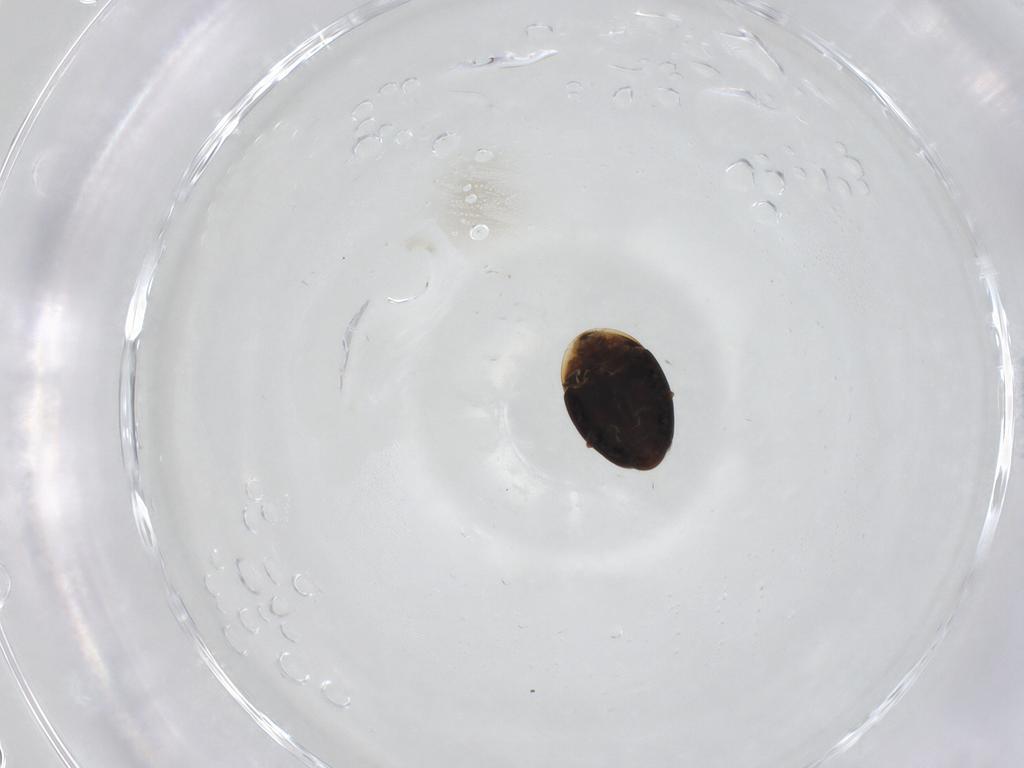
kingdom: Animalia
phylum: Arthropoda
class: Insecta
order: Coleoptera
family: Corylophidae
